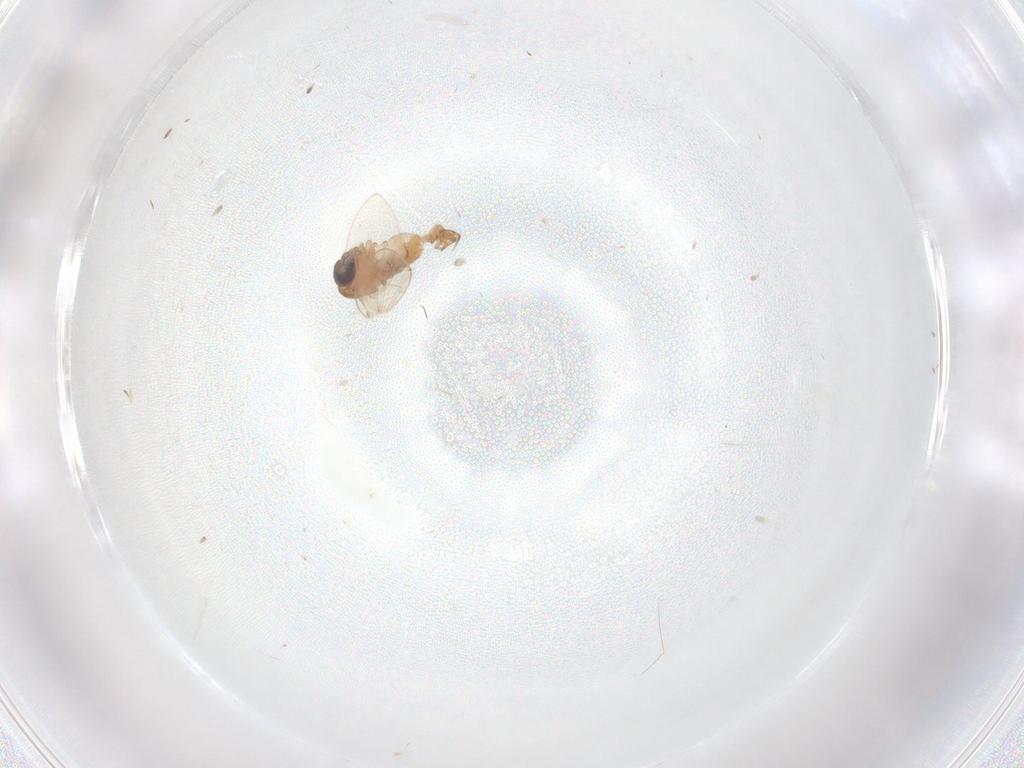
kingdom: Animalia
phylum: Arthropoda
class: Insecta
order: Diptera
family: Psychodidae
